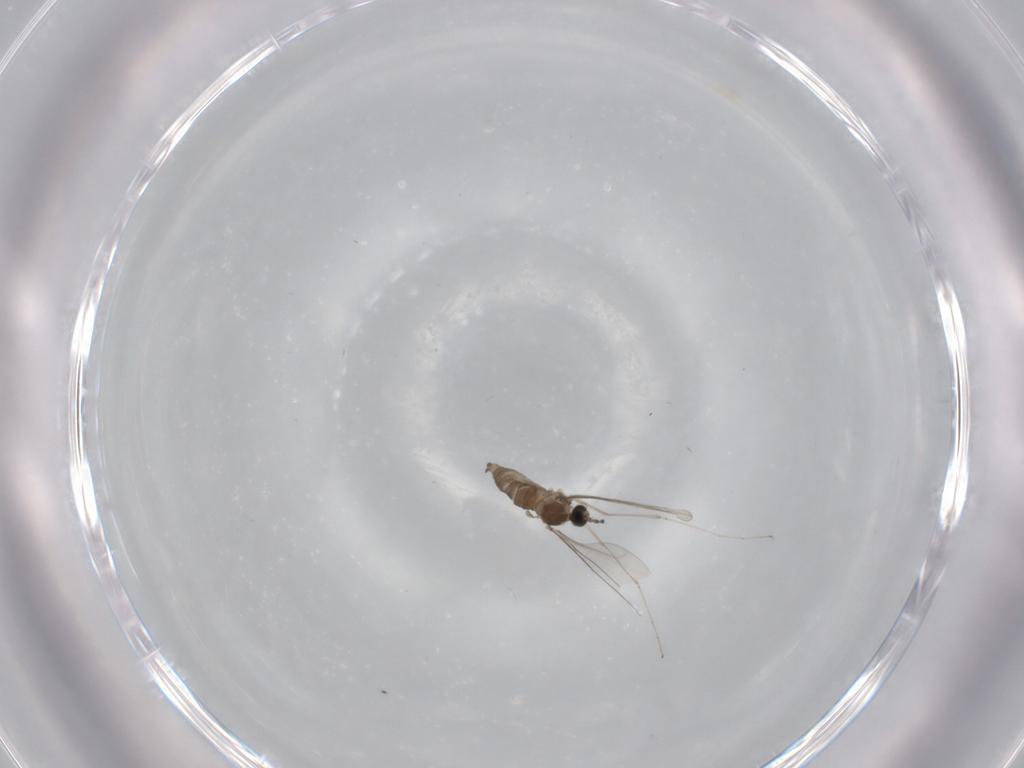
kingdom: Animalia
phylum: Arthropoda
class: Insecta
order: Diptera
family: Cecidomyiidae
